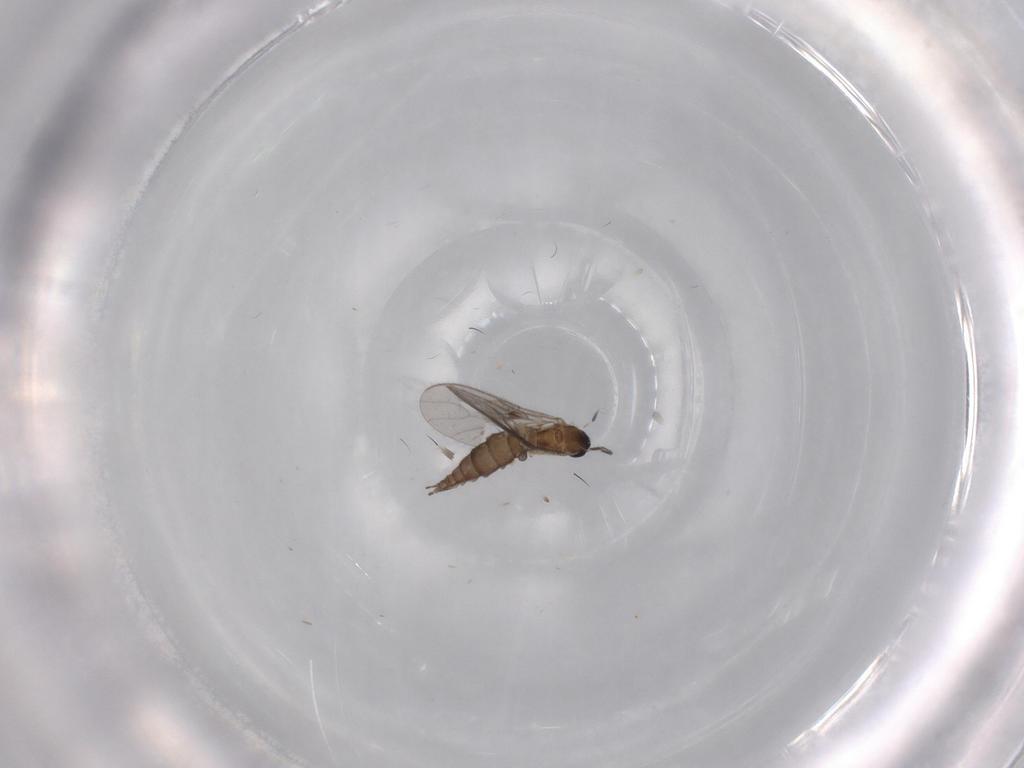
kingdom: Animalia
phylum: Arthropoda
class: Insecta
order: Diptera
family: Sciaridae
